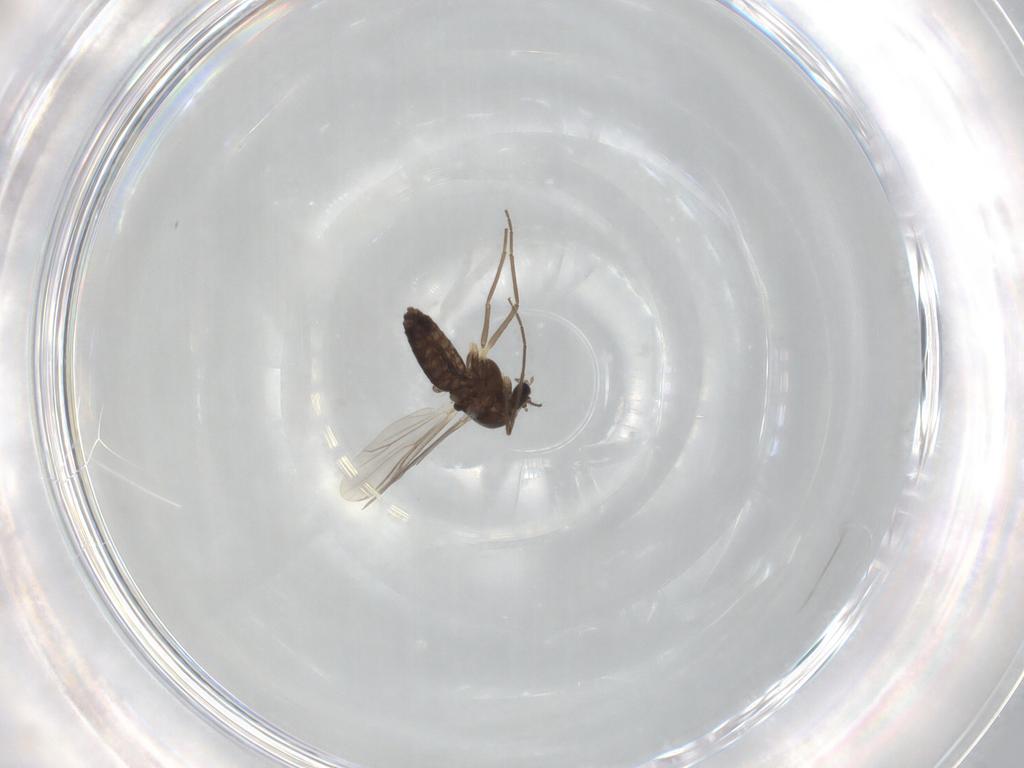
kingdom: Animalia
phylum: Arthropoda
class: Insecta
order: Diptera
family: Chironomidae
